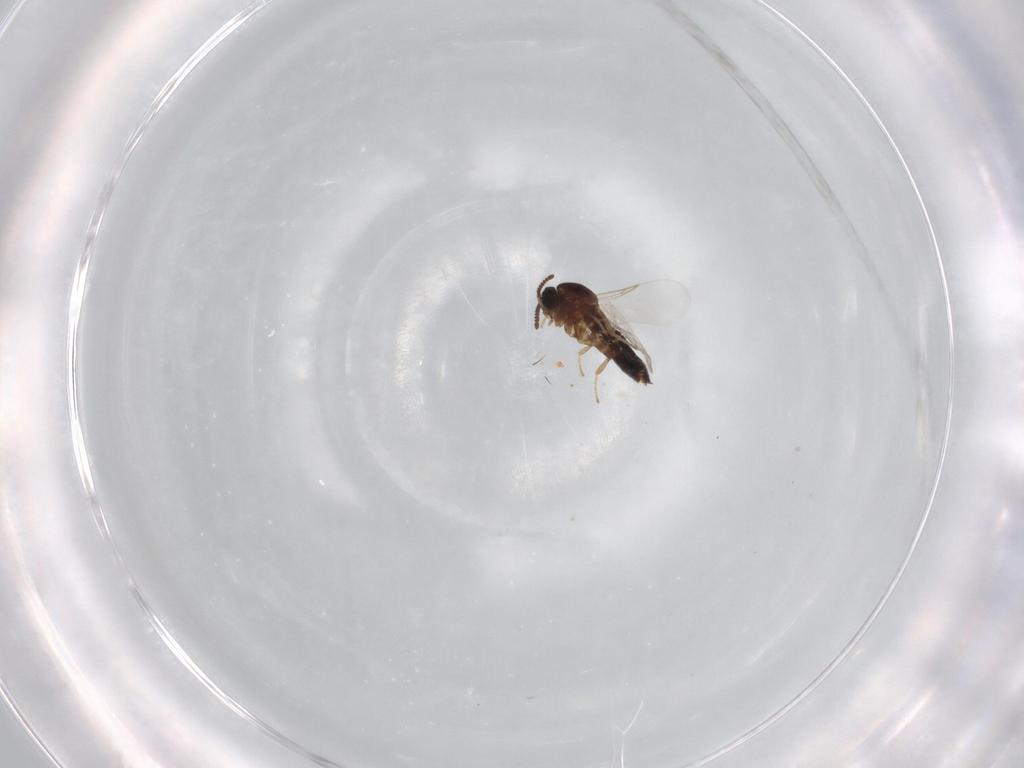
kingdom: Animalia
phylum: Arthropoda
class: Insecta
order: Diptera
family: Scatopsidae
